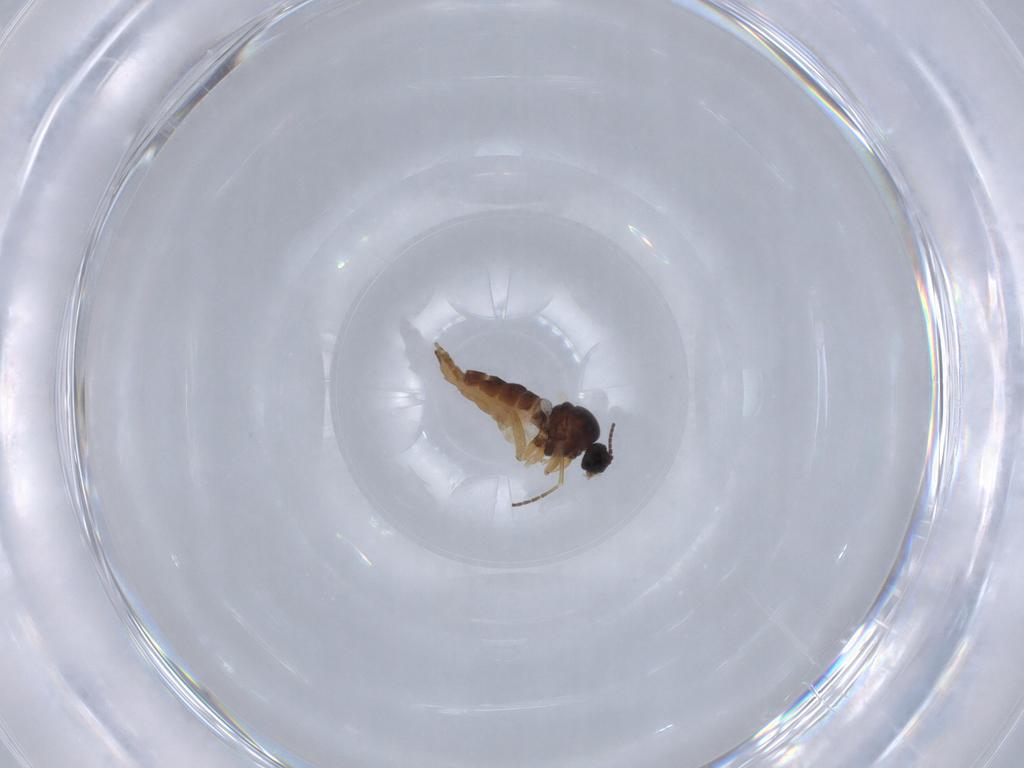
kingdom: Animalia
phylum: Arthropoda
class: Insecta
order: Diptera
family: Sciaridae
